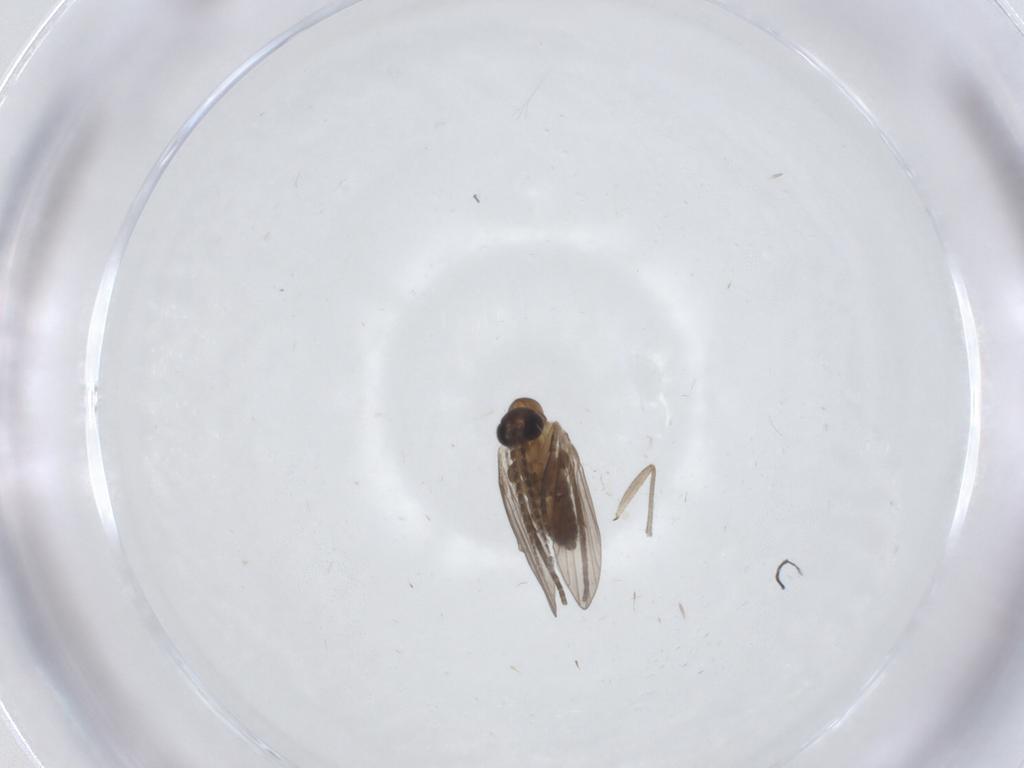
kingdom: Animalia
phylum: Arthropoda
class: Insecta
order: Diptera
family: Sciaridae
